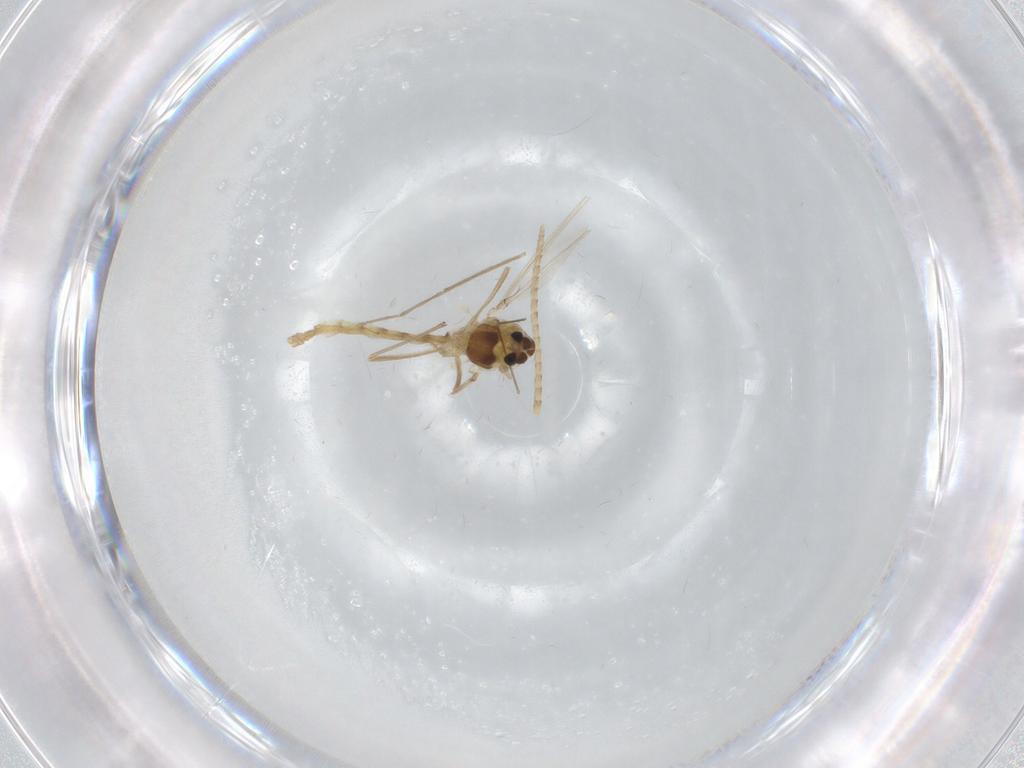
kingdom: Animalia
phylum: Arthropoda
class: Insecta
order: Diptera
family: Chironomidae
